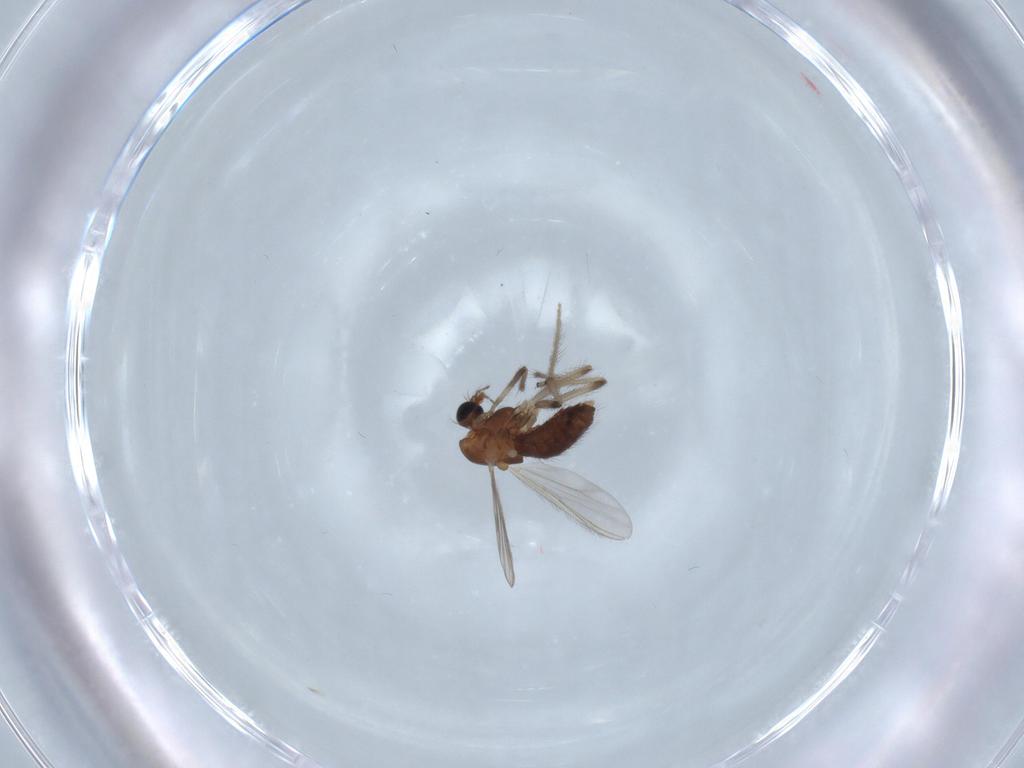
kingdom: Animalia
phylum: Arthropoda
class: Insecta
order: Diptera
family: Chironomidae
